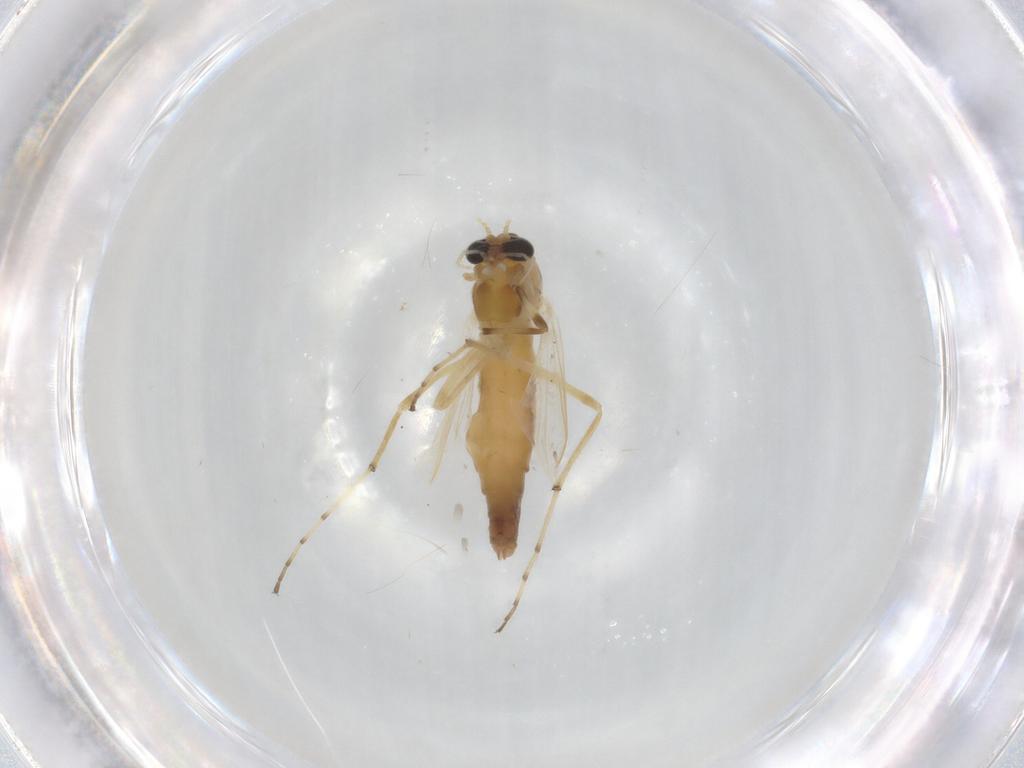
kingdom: Animalia
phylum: Arthropoda
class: Insecta
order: Diptera
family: Chironomidae
